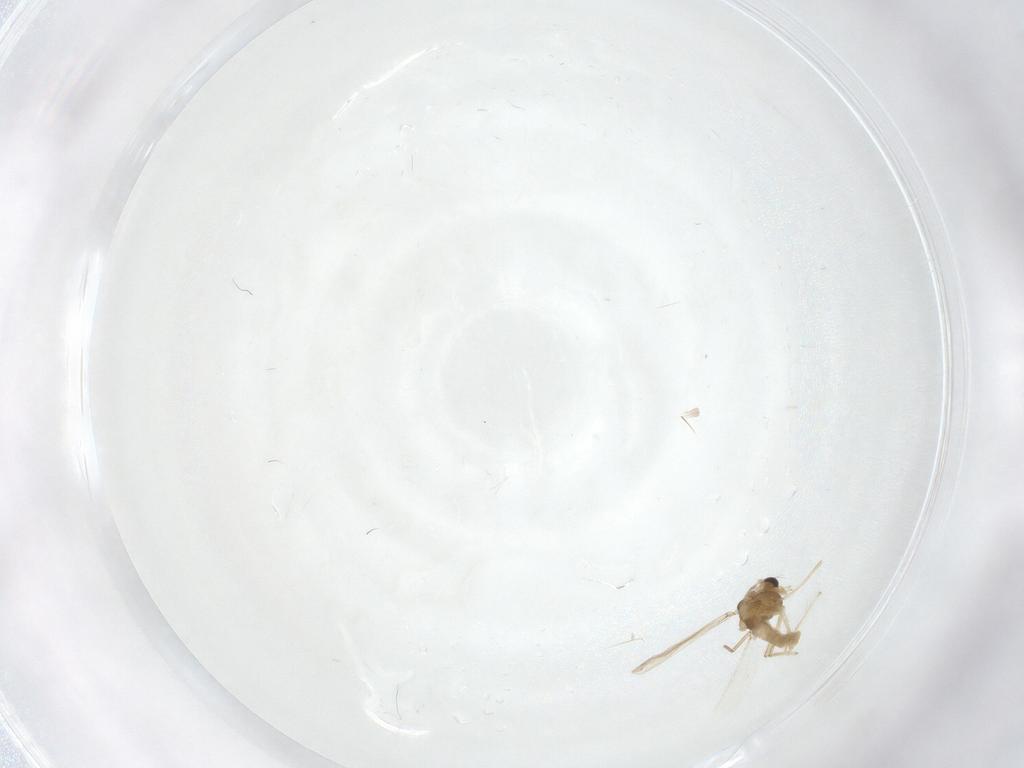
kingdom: Animalia
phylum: Arthropoda
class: Insecta
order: Diptera
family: Chironomidae
